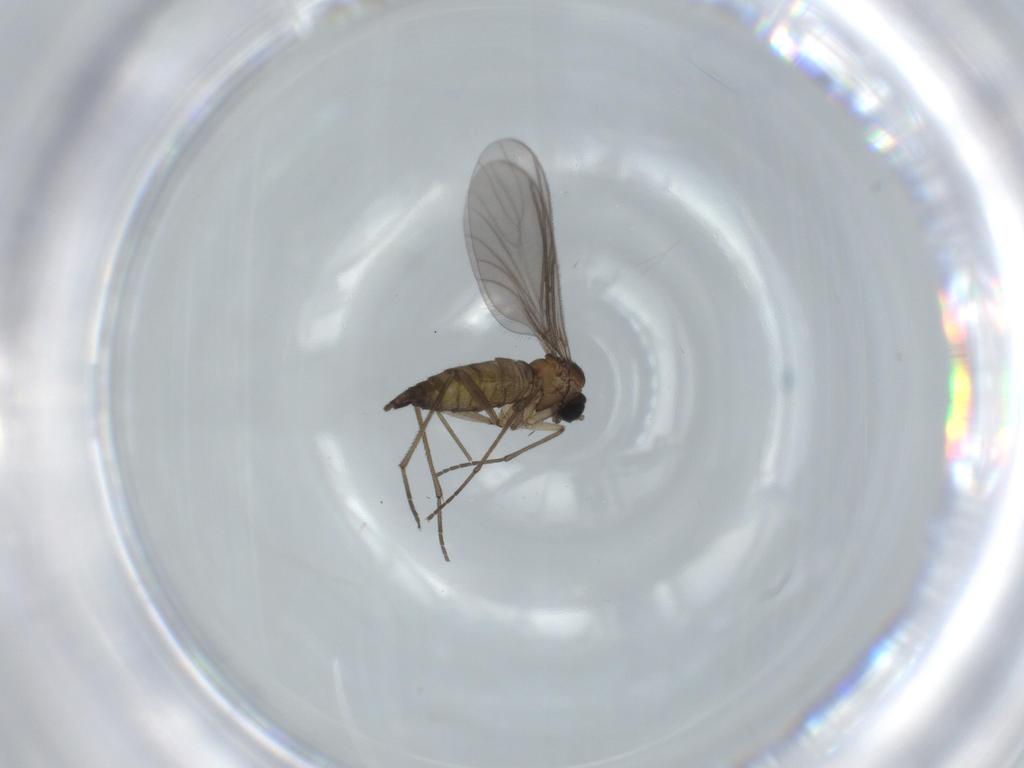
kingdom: Animalia
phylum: Arthropoda
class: Insecta
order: Diptera
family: Sciaridae
